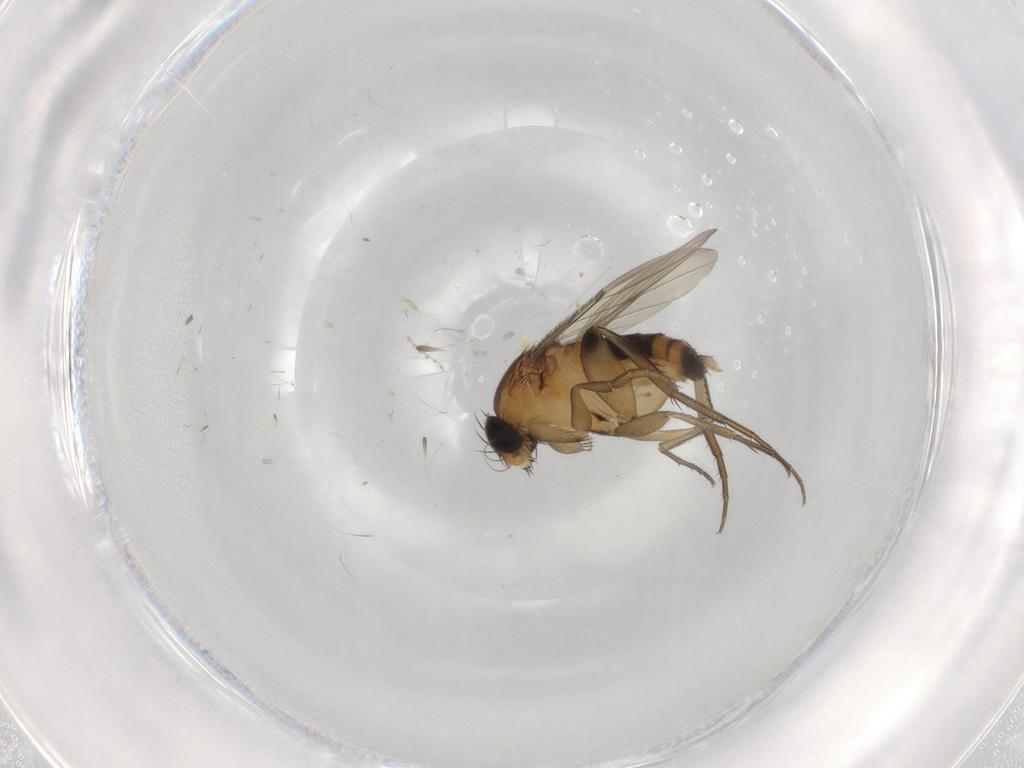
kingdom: Animalia
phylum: Arthropoda
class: Insecta
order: Diptera
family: Phoridae
